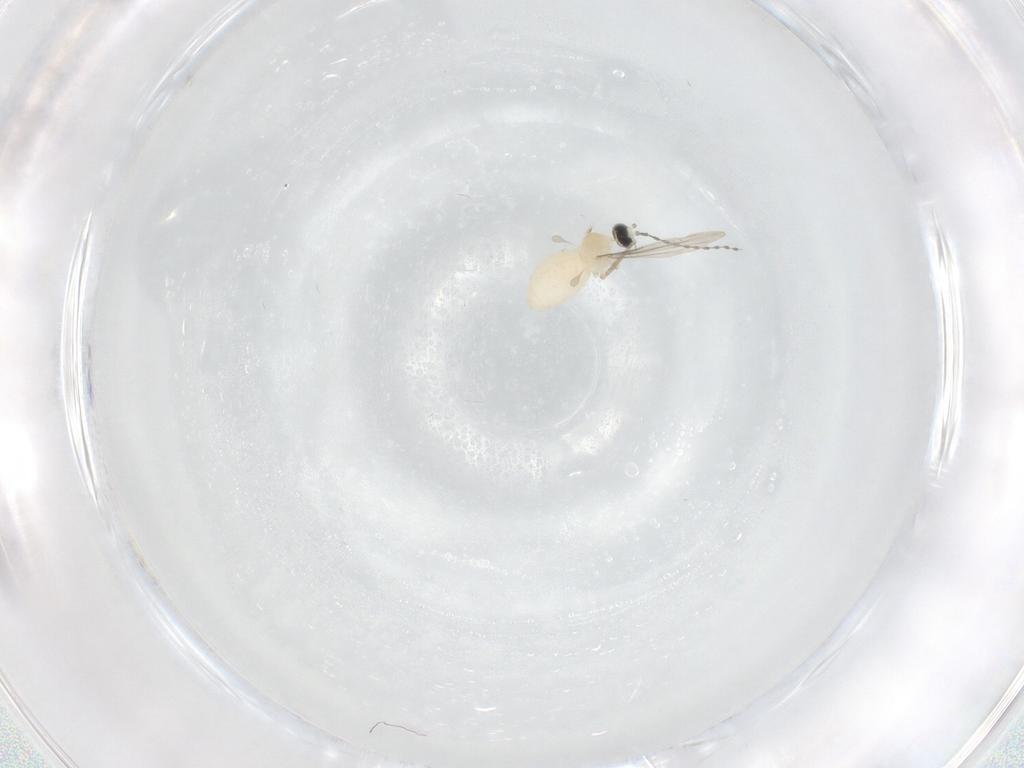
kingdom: Animalia
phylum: Arthropoda
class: Insecta
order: Diptera
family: Cecidomyiidae
